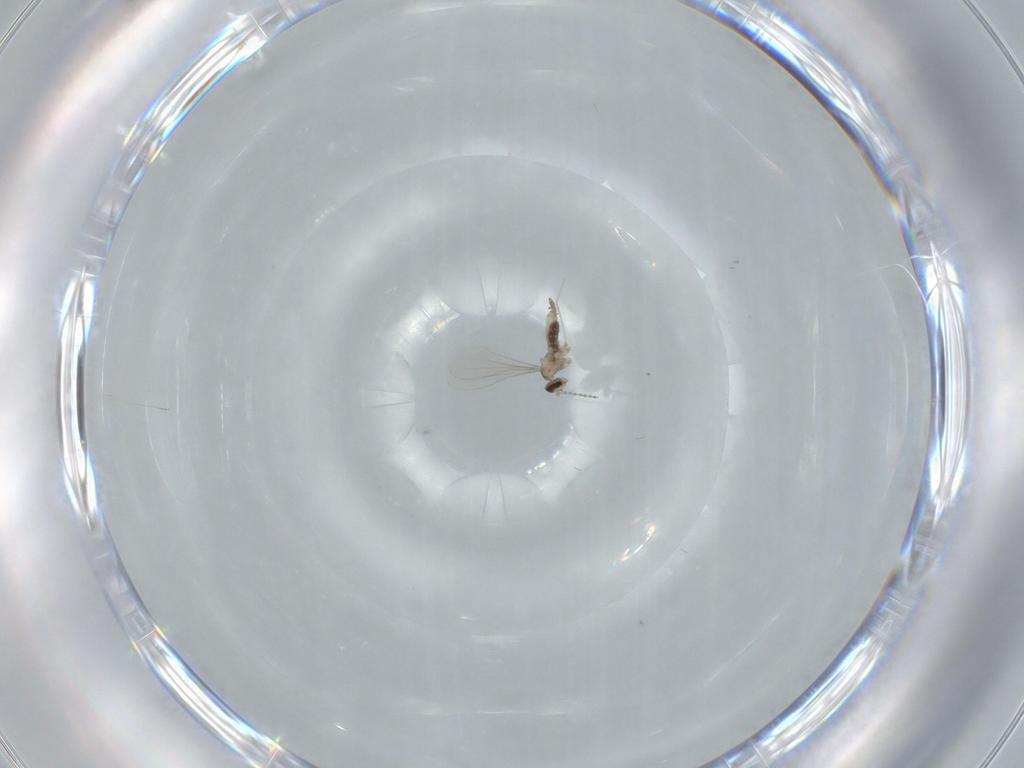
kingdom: Animalia
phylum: Arthropoda
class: Insecta
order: Diptera
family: Cecidomyiidae
